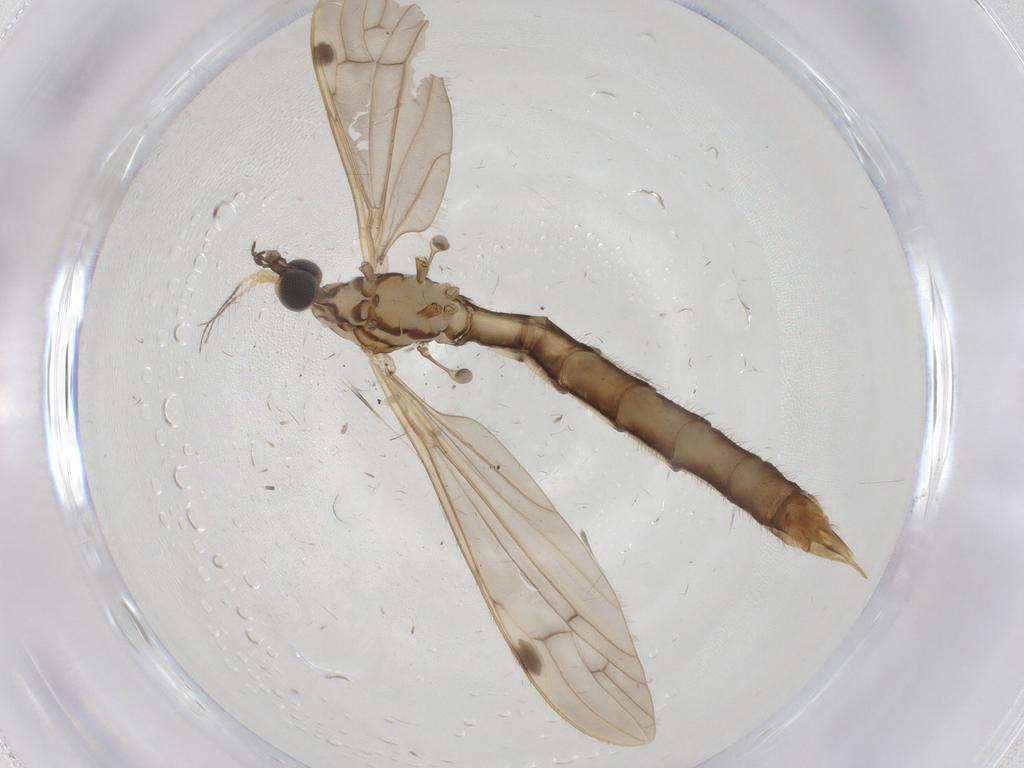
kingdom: Animalia
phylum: Arthropoda
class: Insecta
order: Diptera
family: Limoniidae
